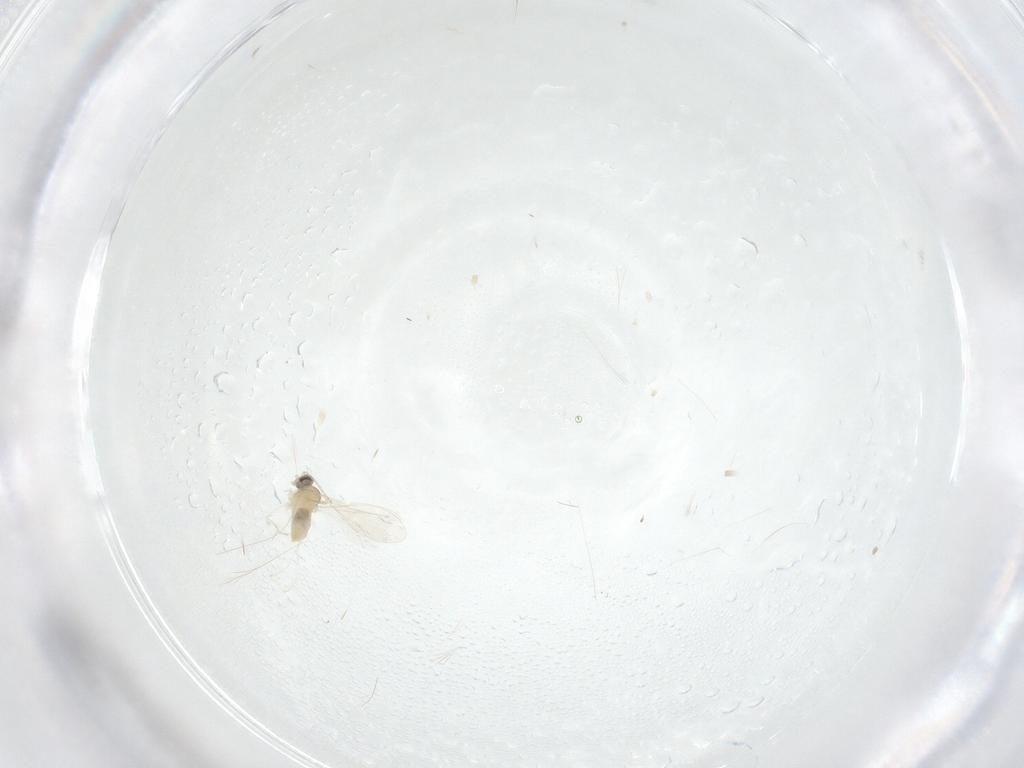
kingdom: Animalia
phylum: Arthropoda
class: Insecta
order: Diptera
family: Cecidomyiidae
